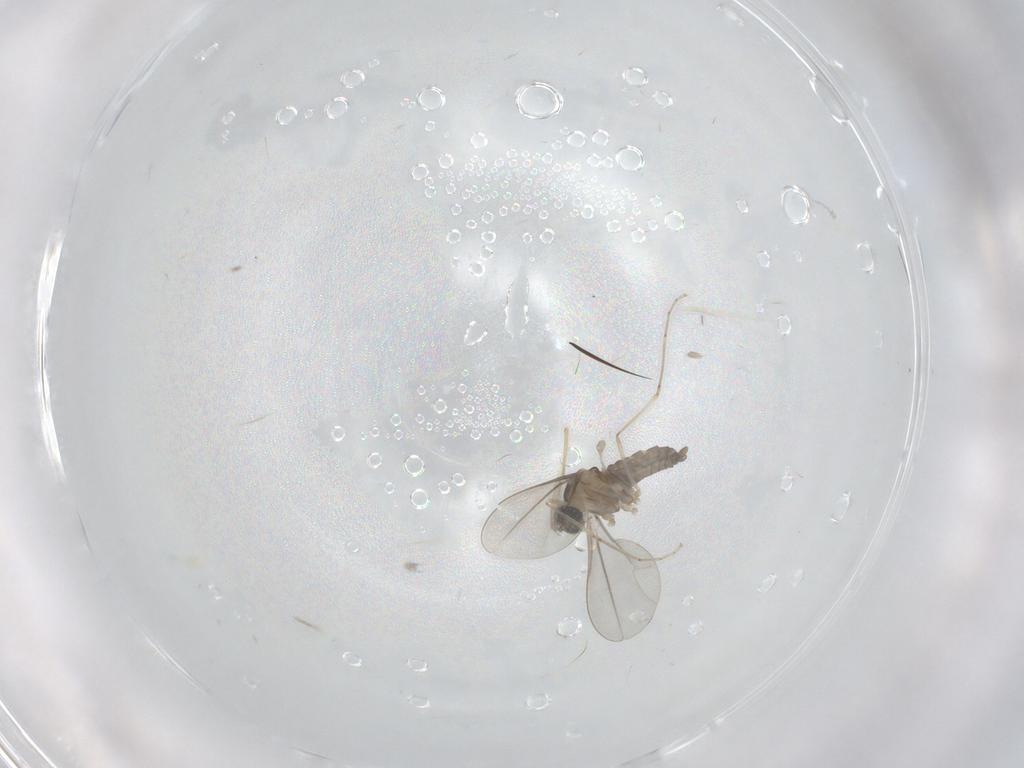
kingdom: Animalia
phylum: Arthropoda
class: Insecta
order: Diptera
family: Cecidomyiidae
